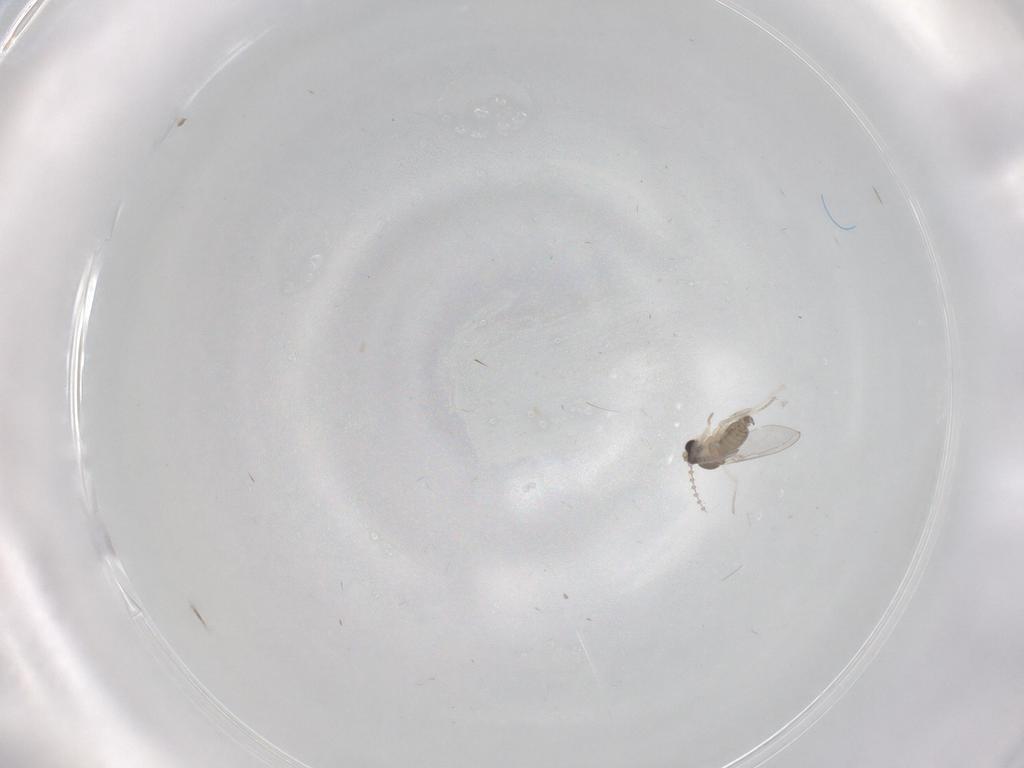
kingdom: Animalia
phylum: Arthropoda
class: Insecta
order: Diptera
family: Cecidomyiidae
